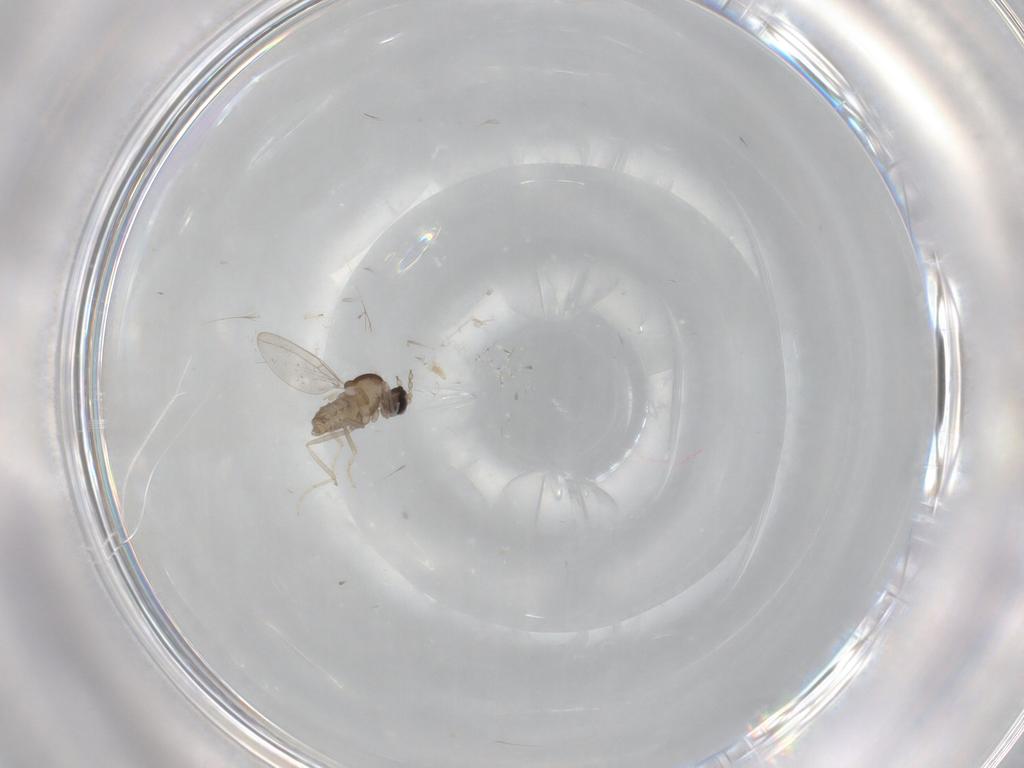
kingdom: Animalia
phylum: Arthropoda
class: Insecta
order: Diptera
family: Cecidomyiidae
